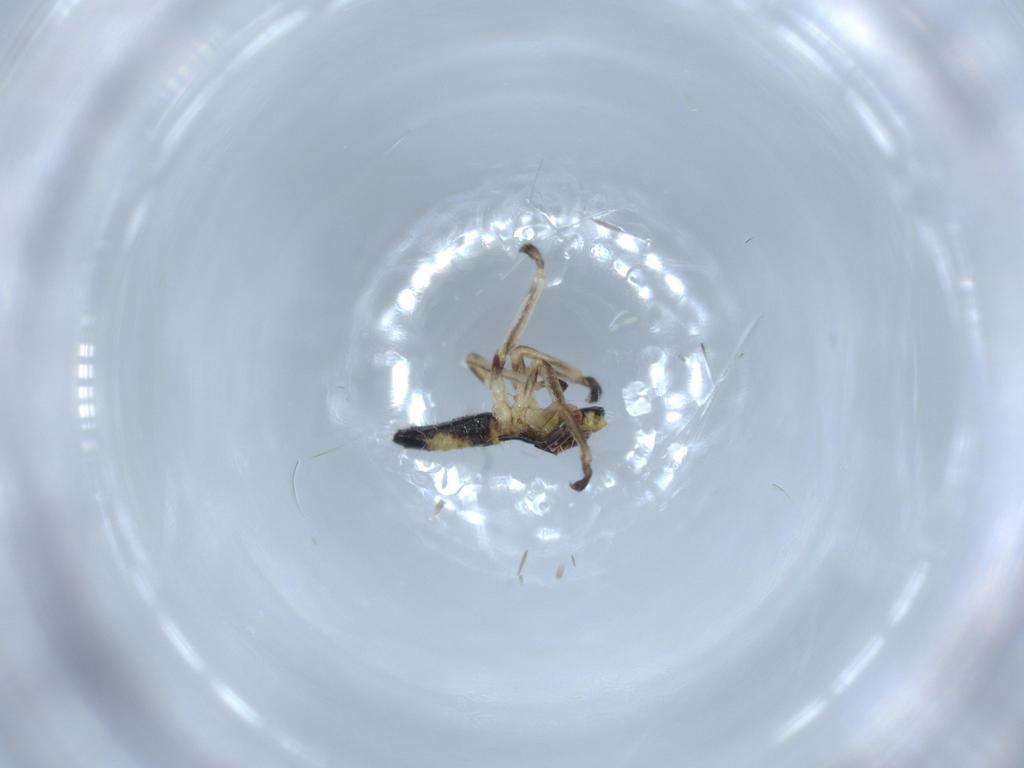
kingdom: Animalia
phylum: Arthropoda
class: Insecta
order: Hemiptera
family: Cicadellidae
